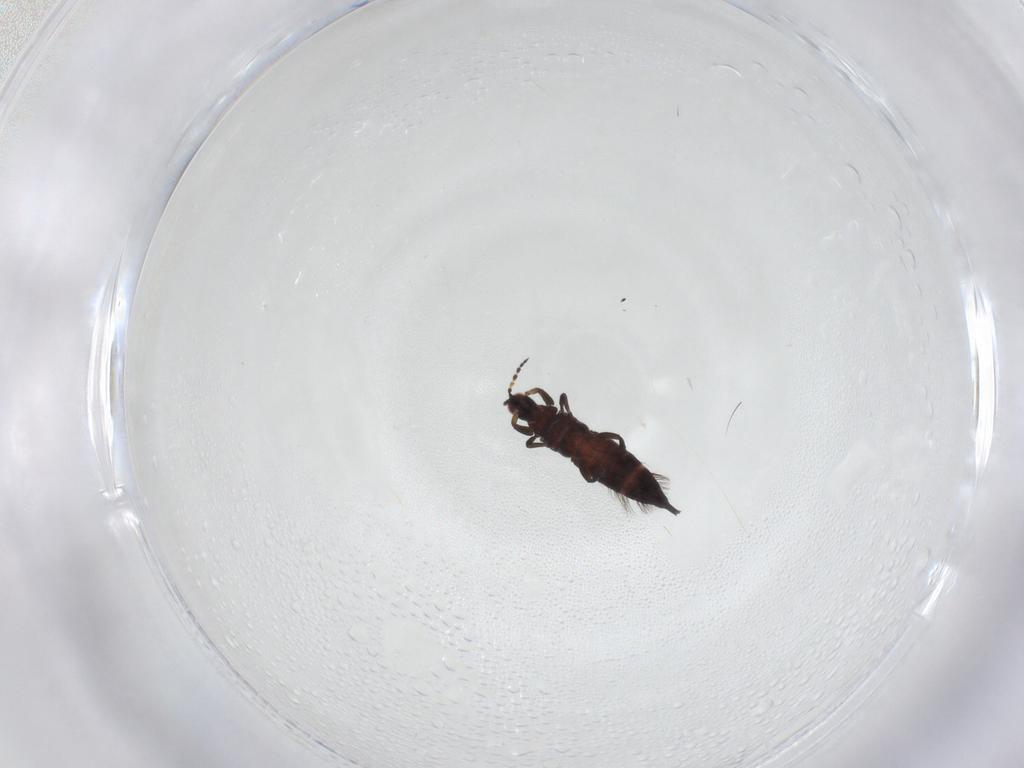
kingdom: Animalia
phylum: Arthropoda
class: Insecta
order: Thysanoptera
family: Phlaeothripidae
